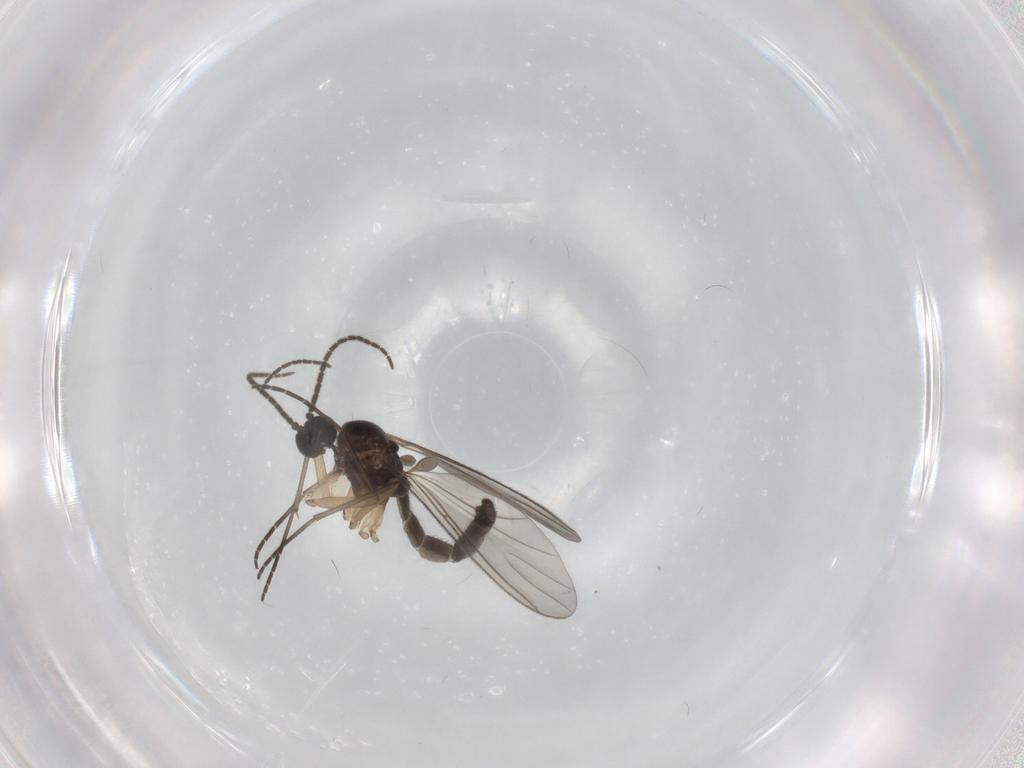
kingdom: Animalia
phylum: Arthropoda
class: Insecta
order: Diptera
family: Sciaridae
